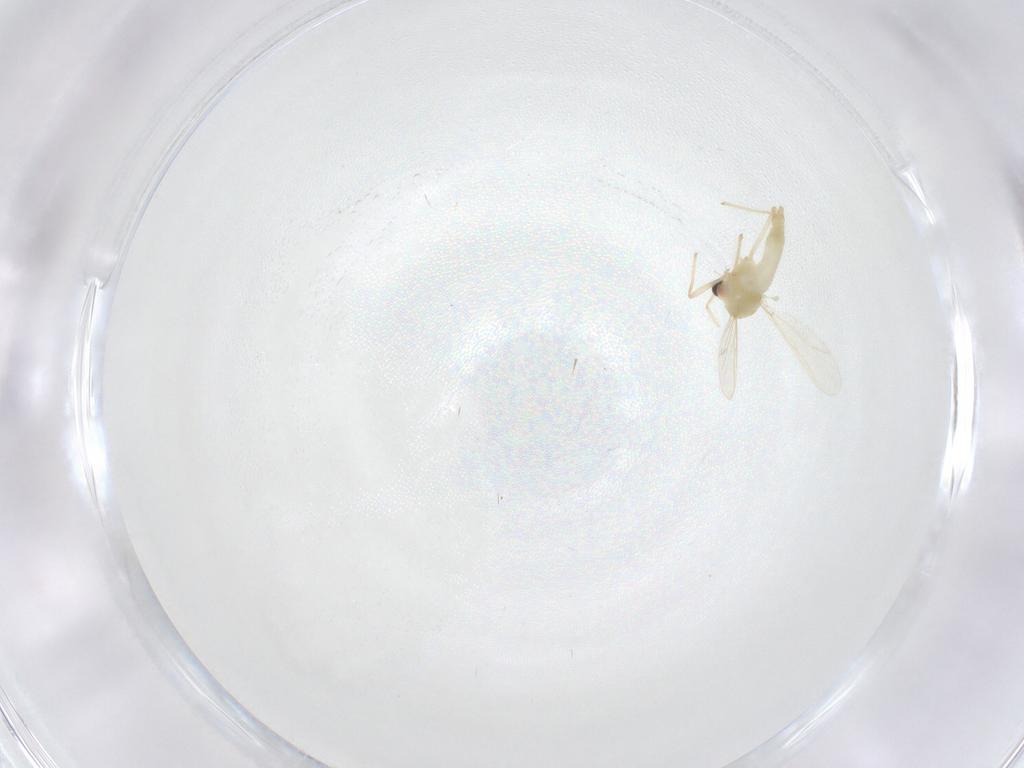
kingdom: Animalia
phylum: Arthropoda
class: Insecta
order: Diptera
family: Chironomidae
